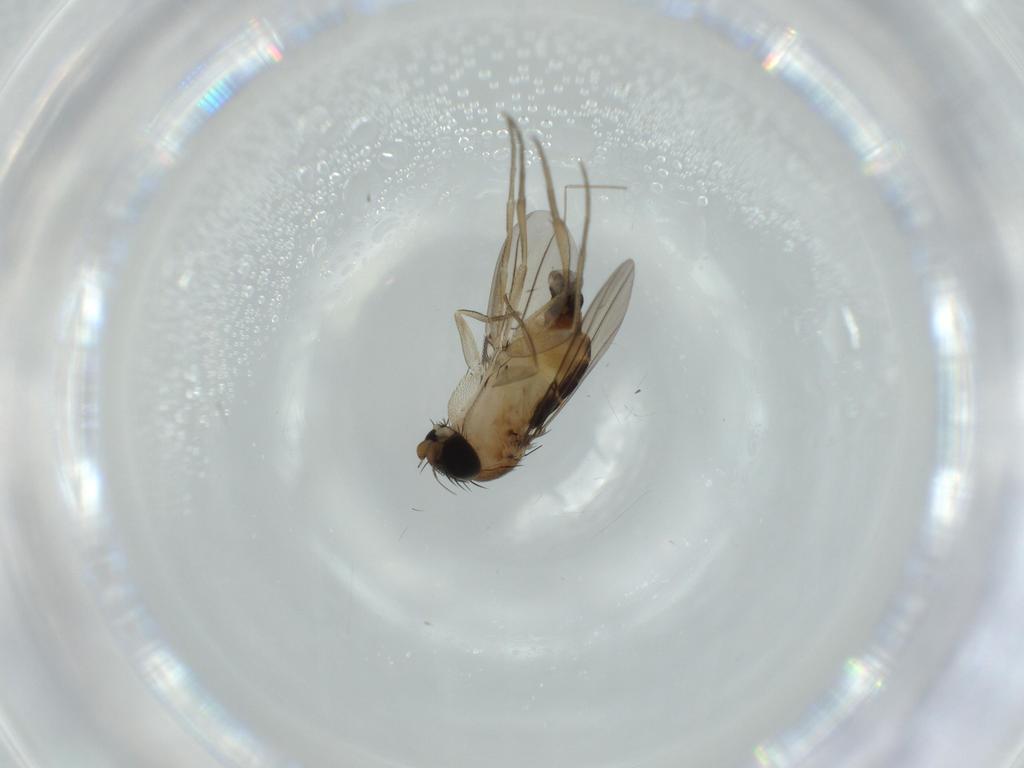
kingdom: Animalia
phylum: Arthropoda
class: Insecta
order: Diptera
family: Phoridae
